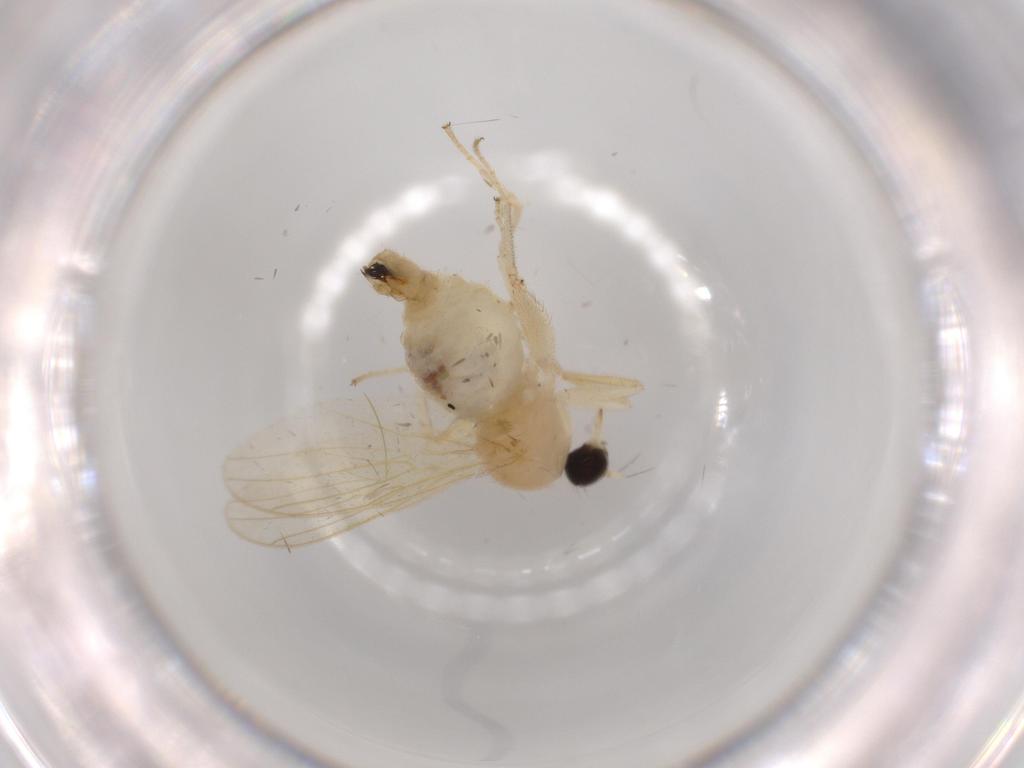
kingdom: Animalia
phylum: Arthropoda
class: Insecta
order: Diptera
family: Hybotidae
